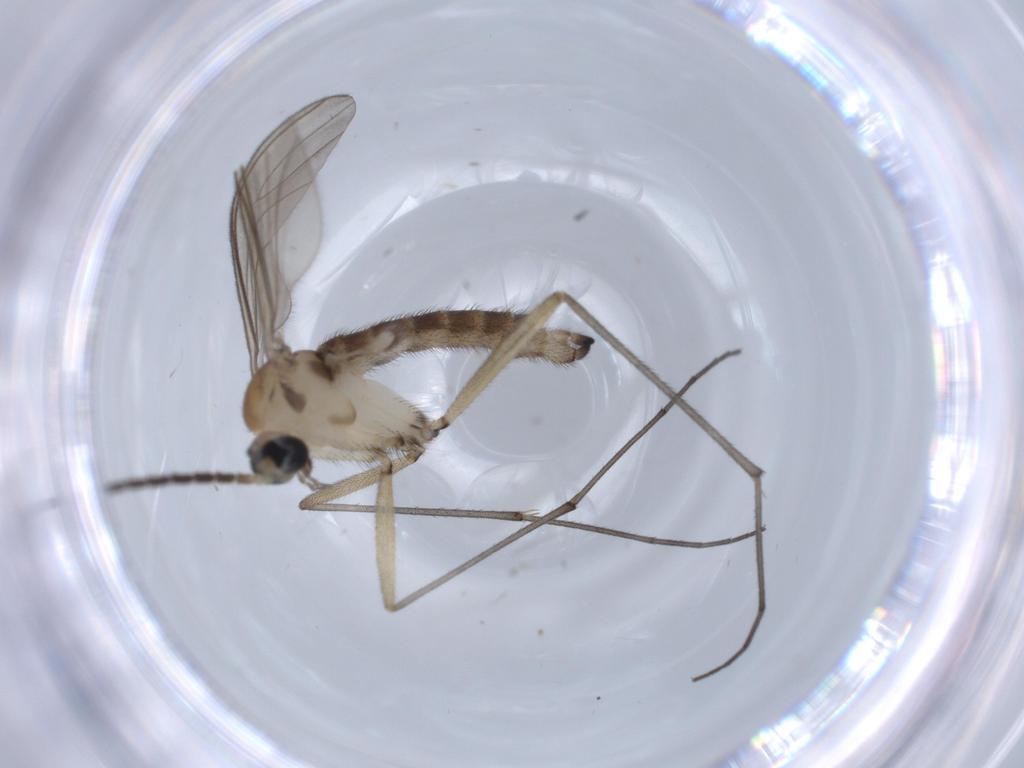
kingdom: Animalia
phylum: Arthropoda
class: Insecta
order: Diptera
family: Sciaridae
